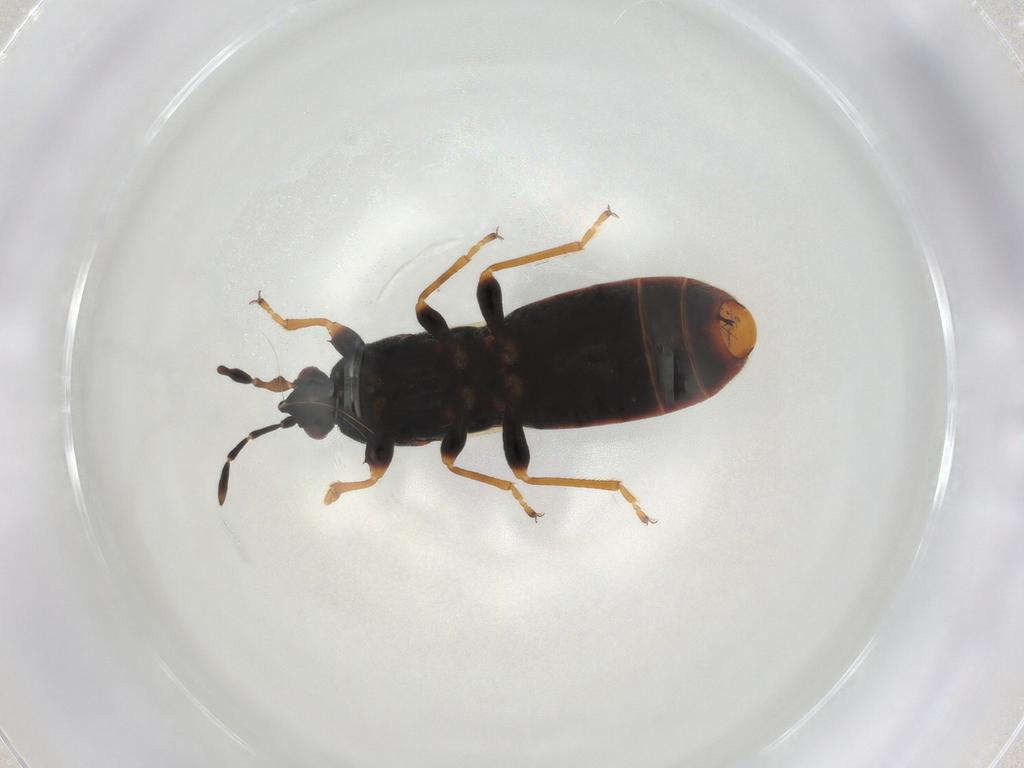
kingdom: Animalia
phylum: Arthropoda
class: Insecta
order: Hemiptera
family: Blissidae
